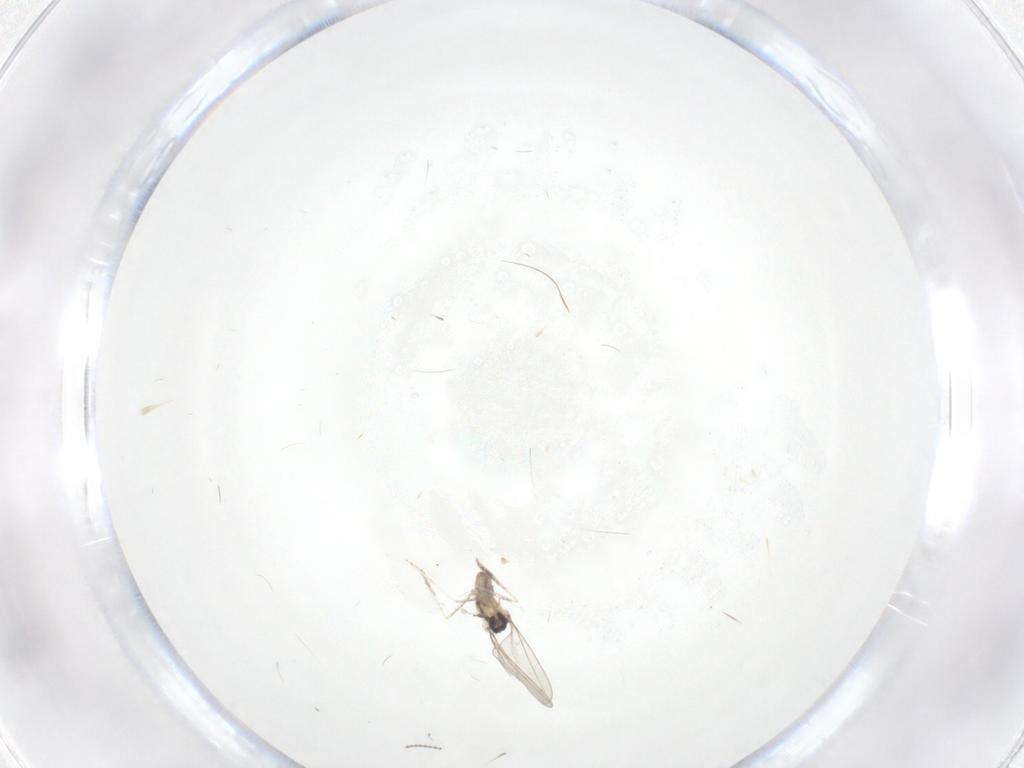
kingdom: Animalia
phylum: Arthropoda
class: Insecta
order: Diptera
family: Cecidomyiidae
